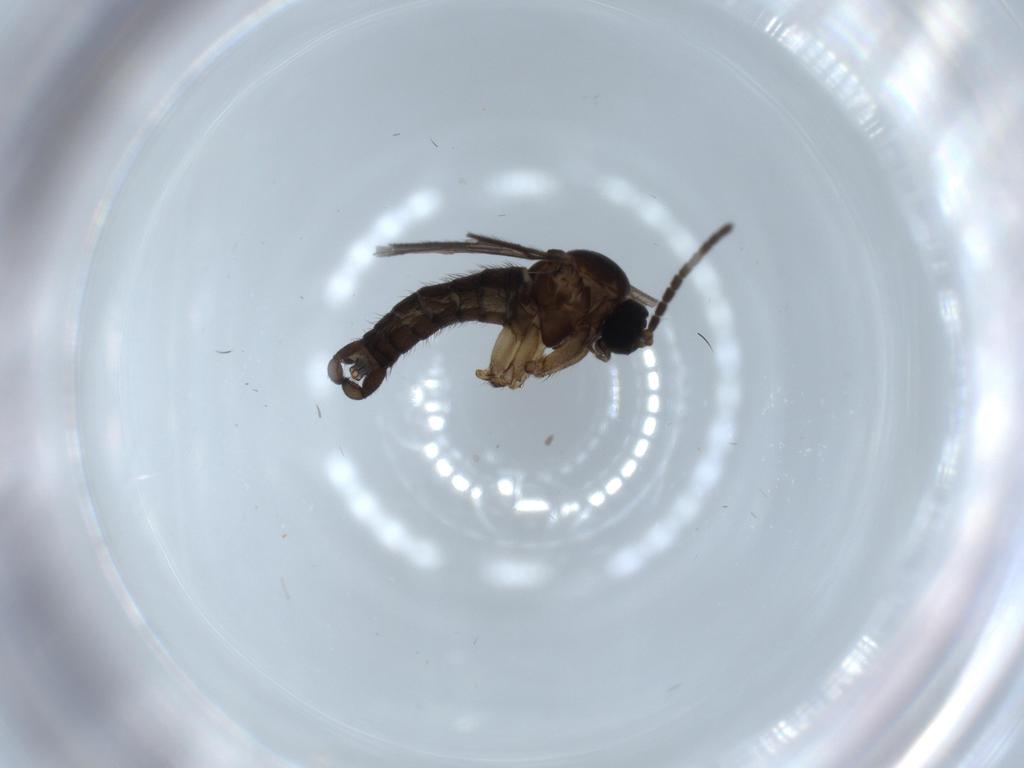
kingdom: Animalia
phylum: Arthropoda
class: Insecta
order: Diptera
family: Sciaridae
